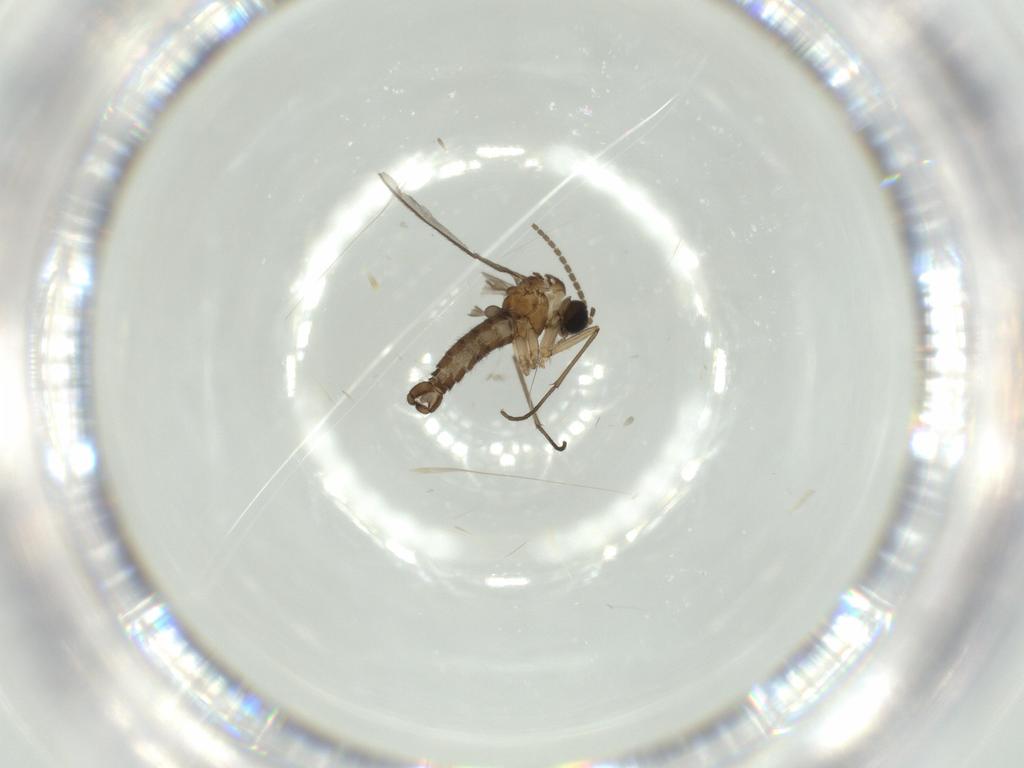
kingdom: Animalia
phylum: Arthropoda
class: Insecta
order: Diptera
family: Sciaridae
